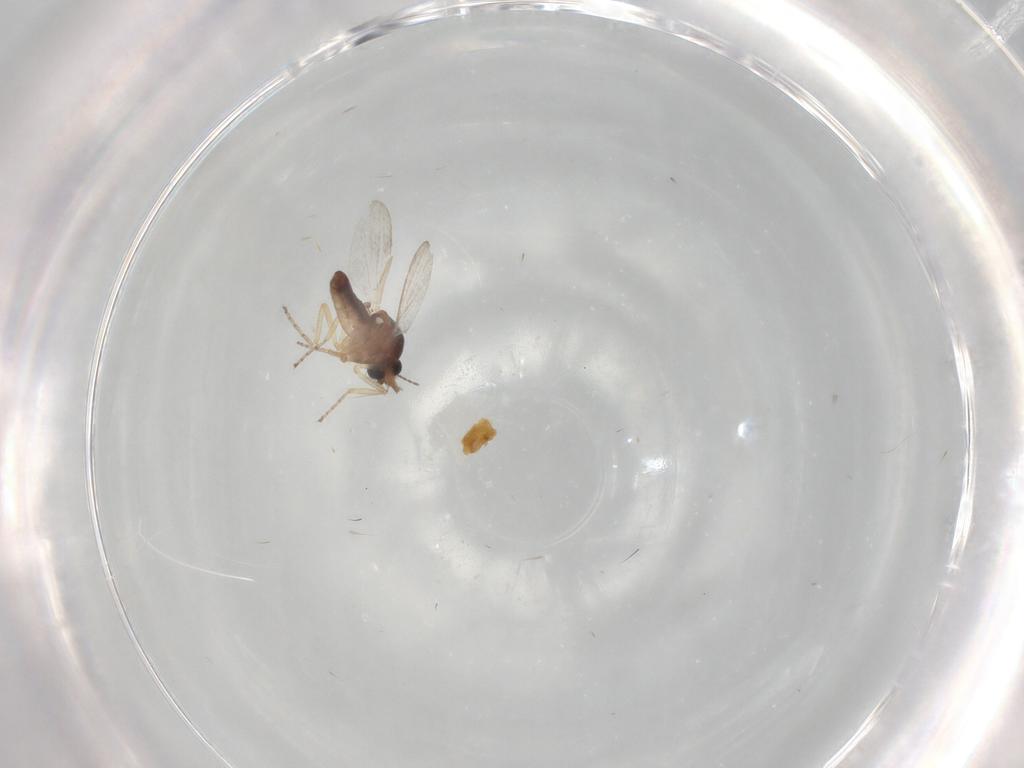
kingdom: Animalia
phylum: Arthropoda
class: Insecta
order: Diptera
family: Ceratopogonidae
